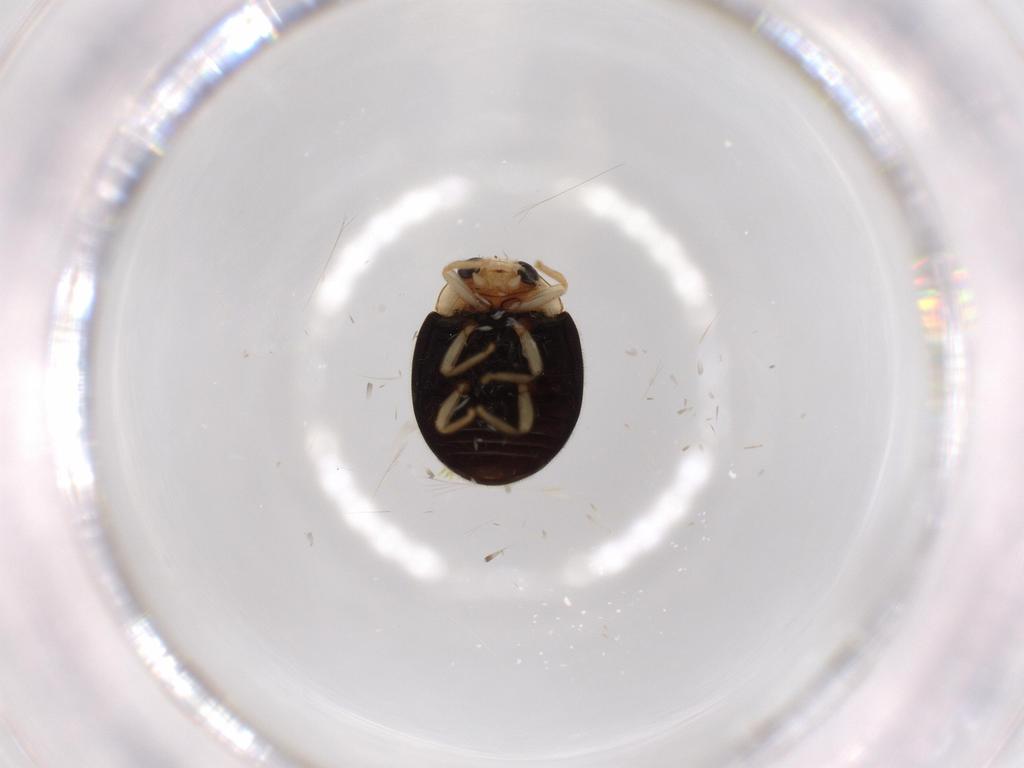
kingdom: Animalia
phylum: Arthropoda
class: Insecta
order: Coleoptera
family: Coccinellidae
